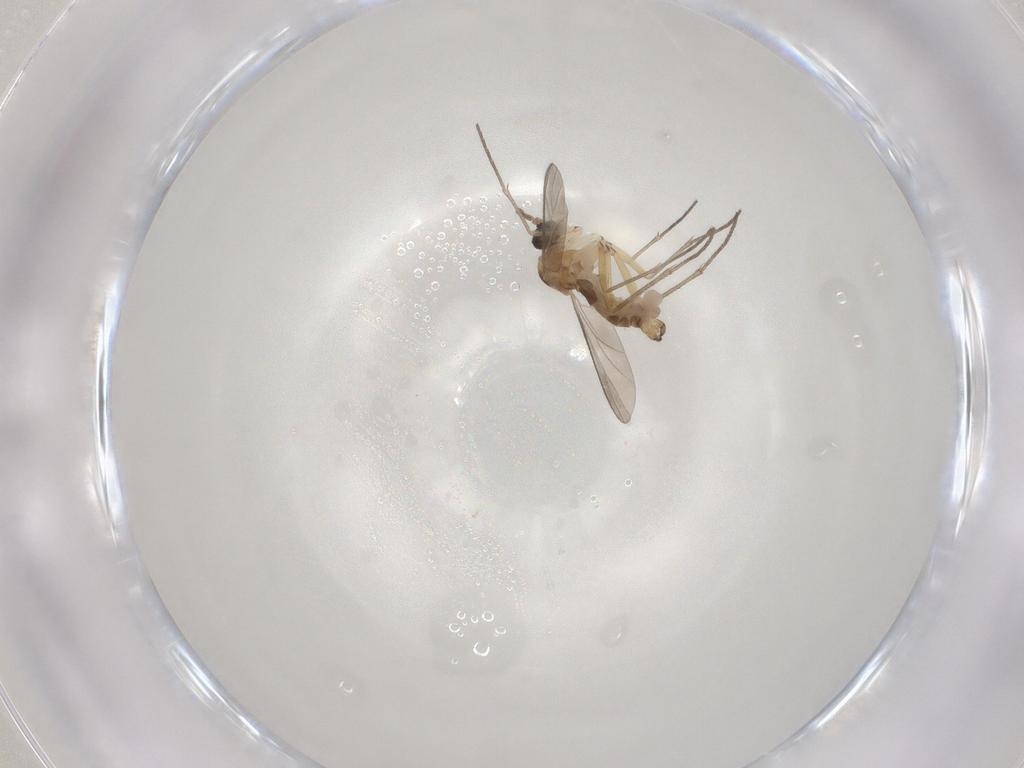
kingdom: Animalia
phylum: Arthropoda
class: Insecta
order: Diptera
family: Sciaridae
